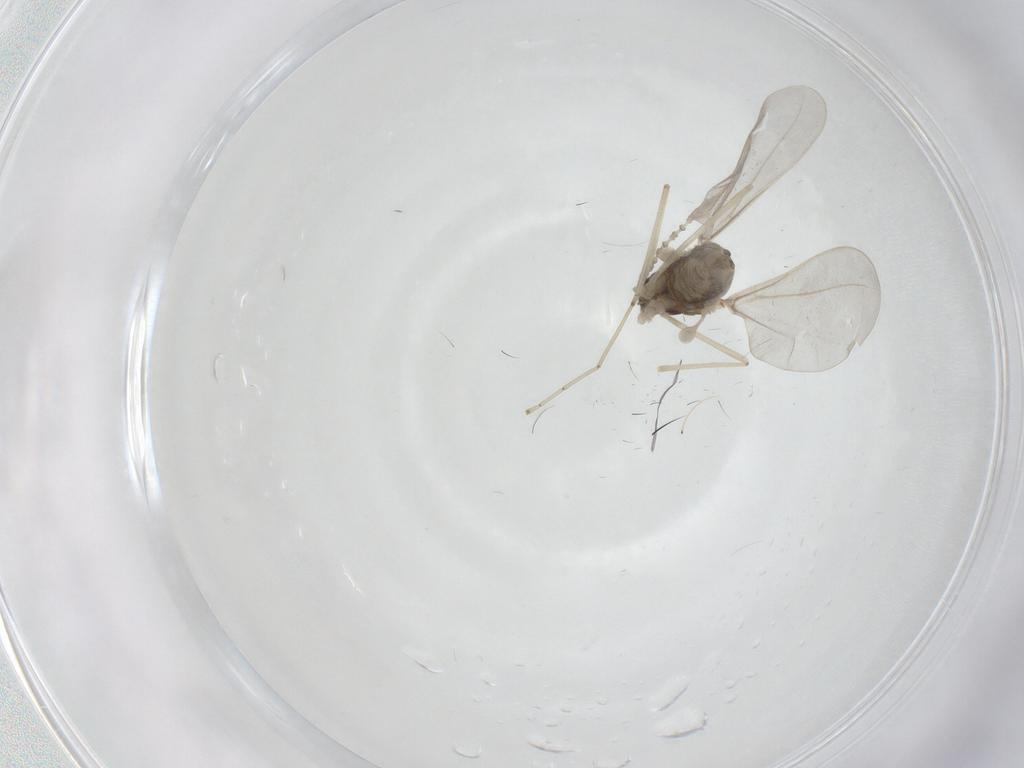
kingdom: Animalia
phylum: Arthropoda
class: Insecta
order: Diptera
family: Cecidomyiidae
